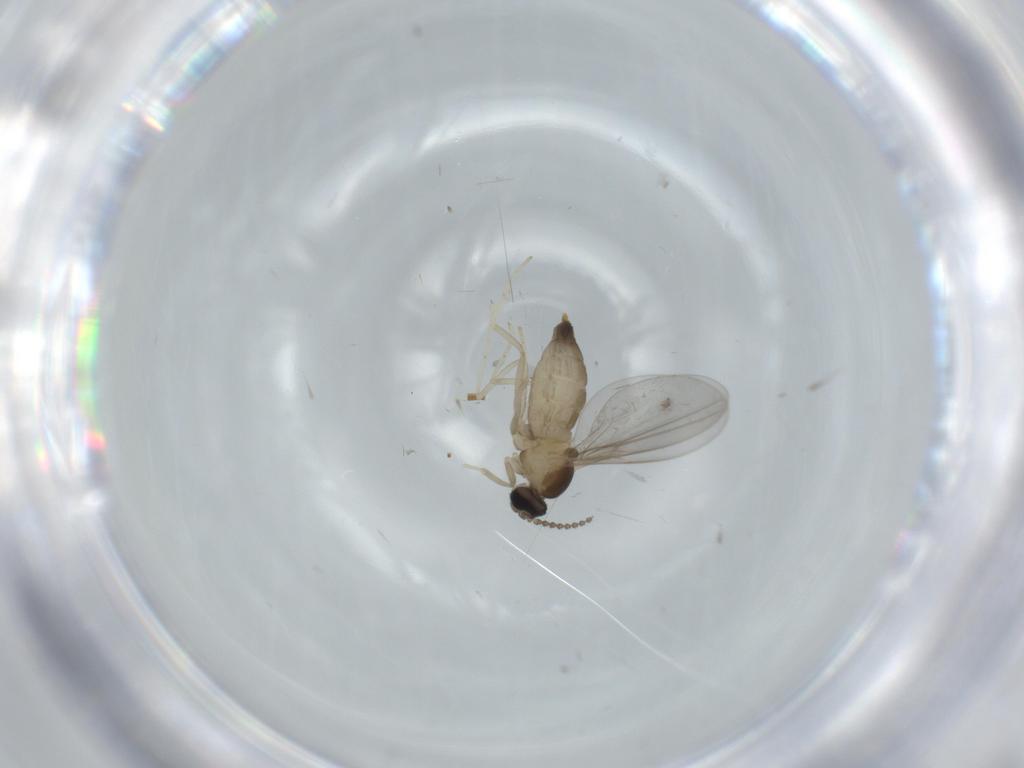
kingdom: Animalia
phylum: Arthropoda
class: Insecta
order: Diptera
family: Cecidomyiidae
